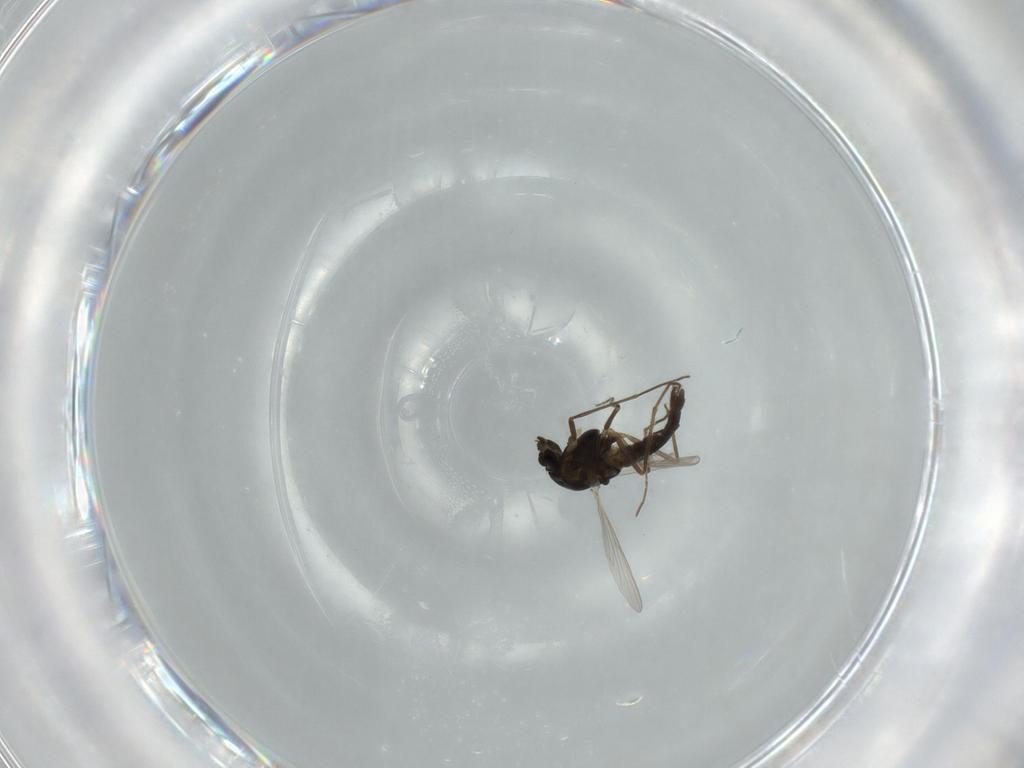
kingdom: Animalia
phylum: Arthropoda
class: Insecta
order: Diptera
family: Chironomidae
